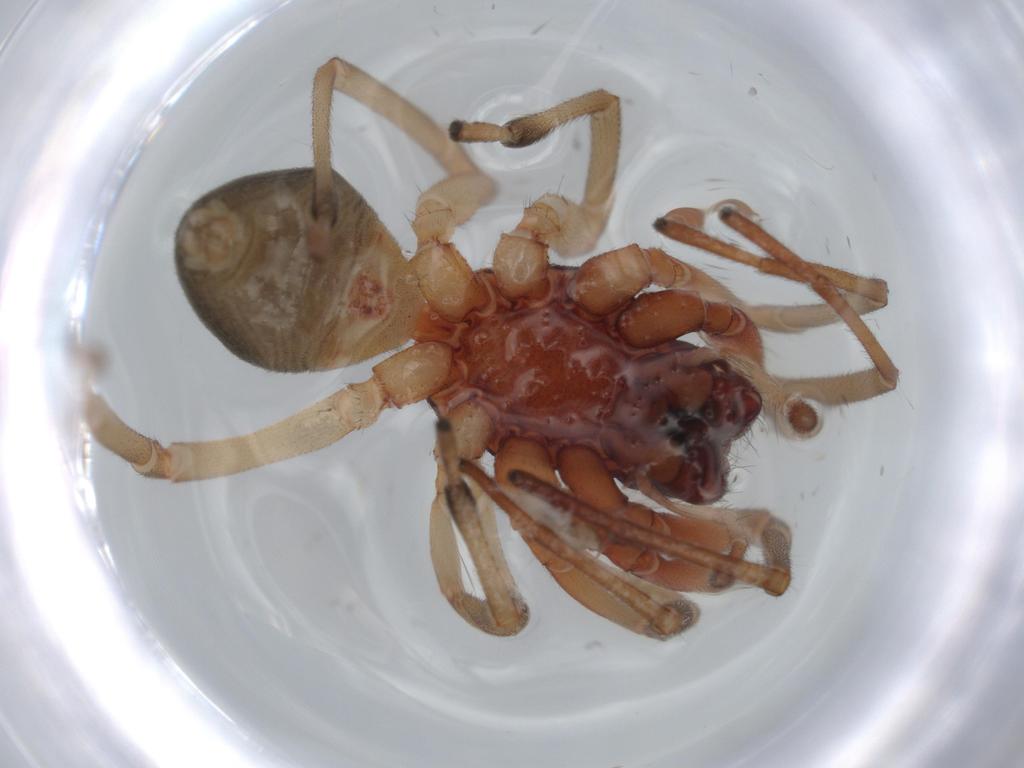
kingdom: Animalia
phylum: Arthropoda
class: Arachnida
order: Araneae
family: Trachelidae
